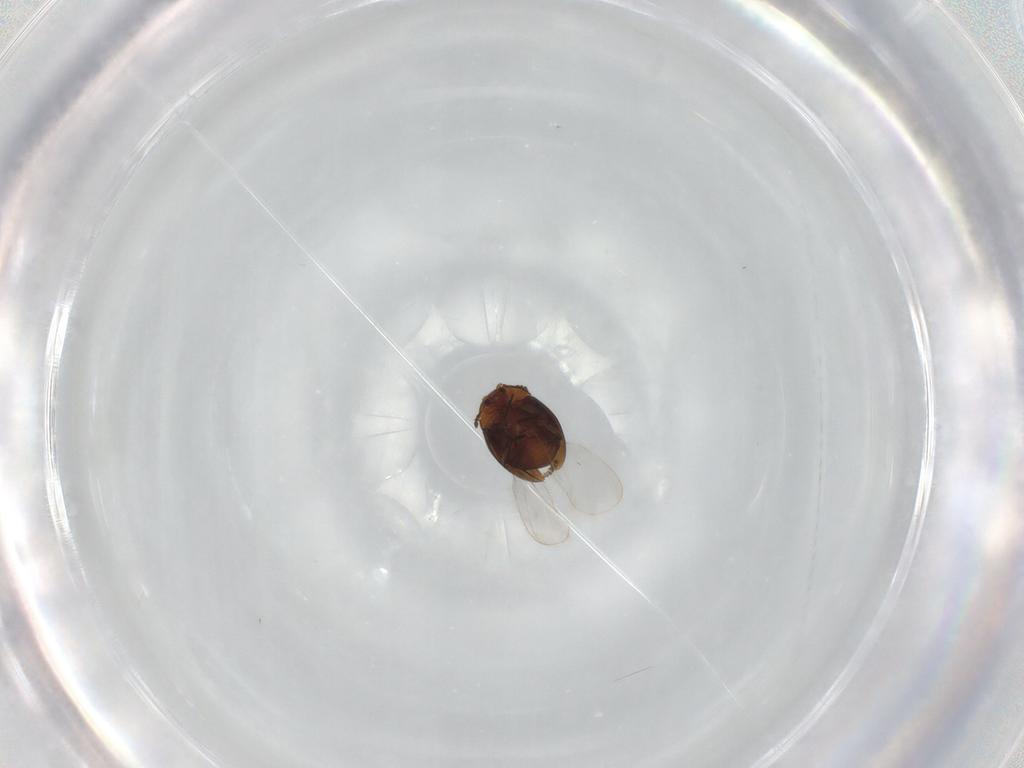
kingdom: Animalia
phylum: Arthropoda
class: Insecta
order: Coleoptera
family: Corylophidae
